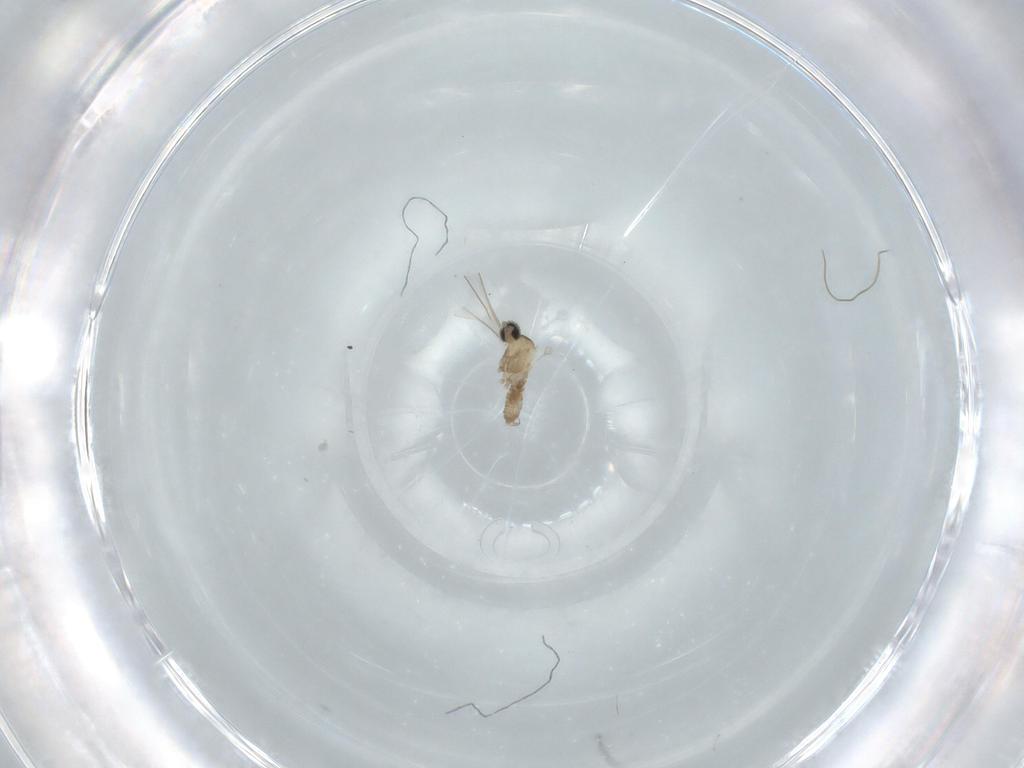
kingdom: Animalia
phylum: Arthropoda
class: Insecta
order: Diptera
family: Cecidomyiidae
